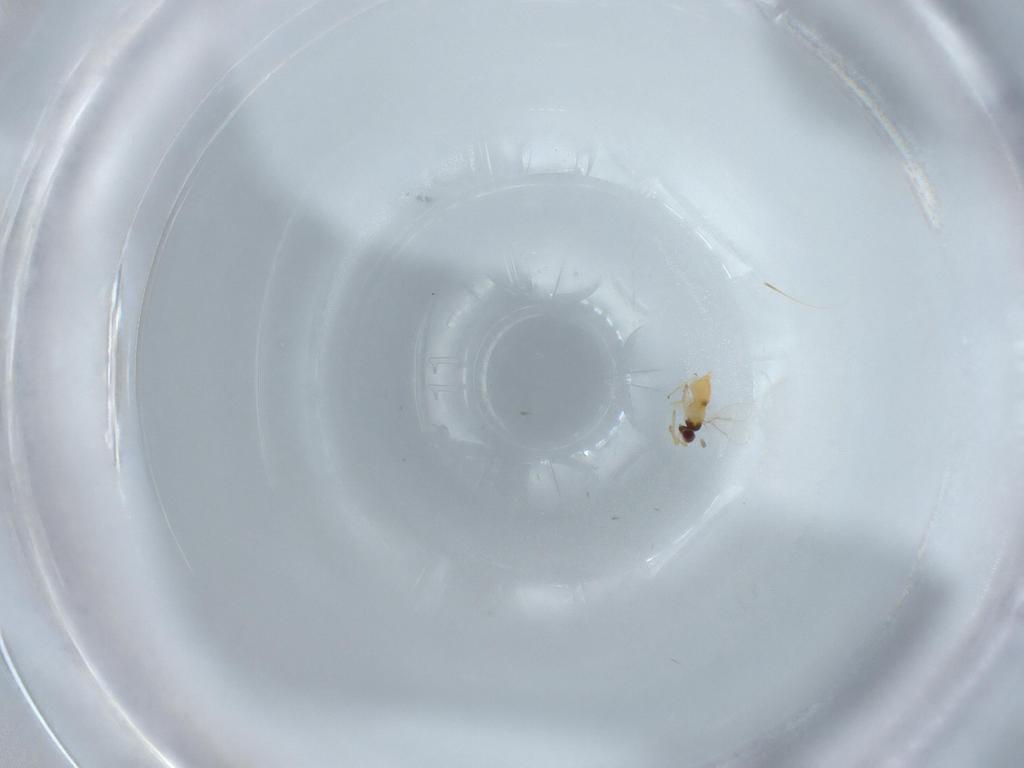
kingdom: Animalia
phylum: Arthropoda
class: Insecta
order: Hymenoptera
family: Aphelinidae
